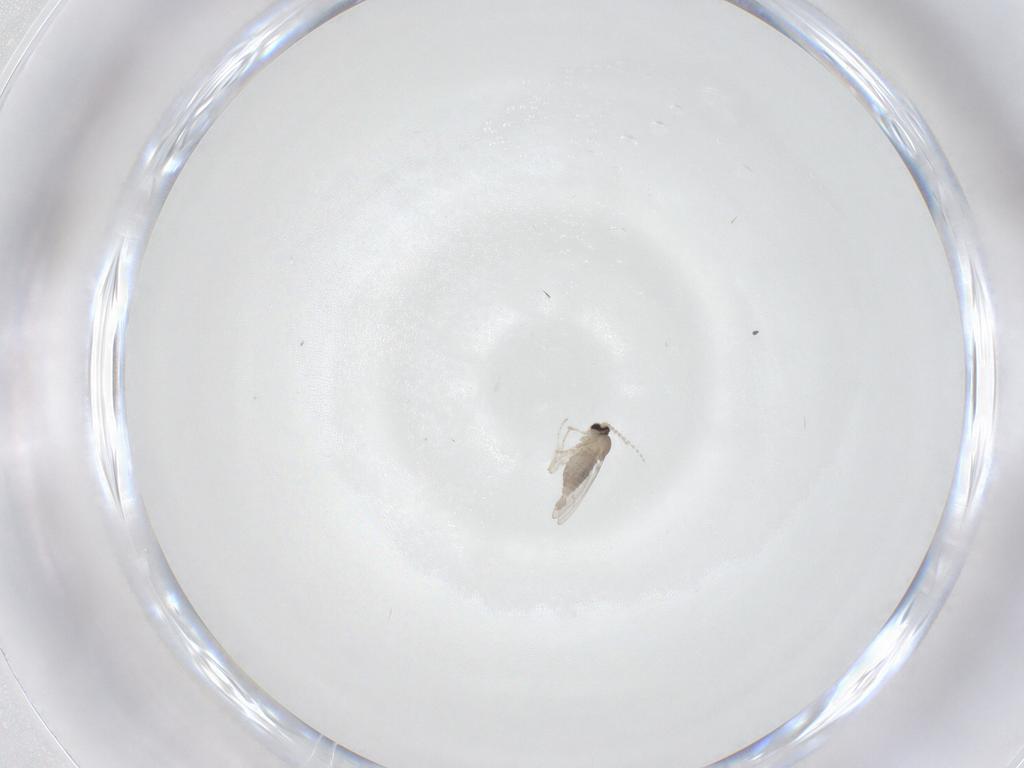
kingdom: Animalia
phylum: Arthropoda
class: Insecta
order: Diptera
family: Cecidomyiidae
